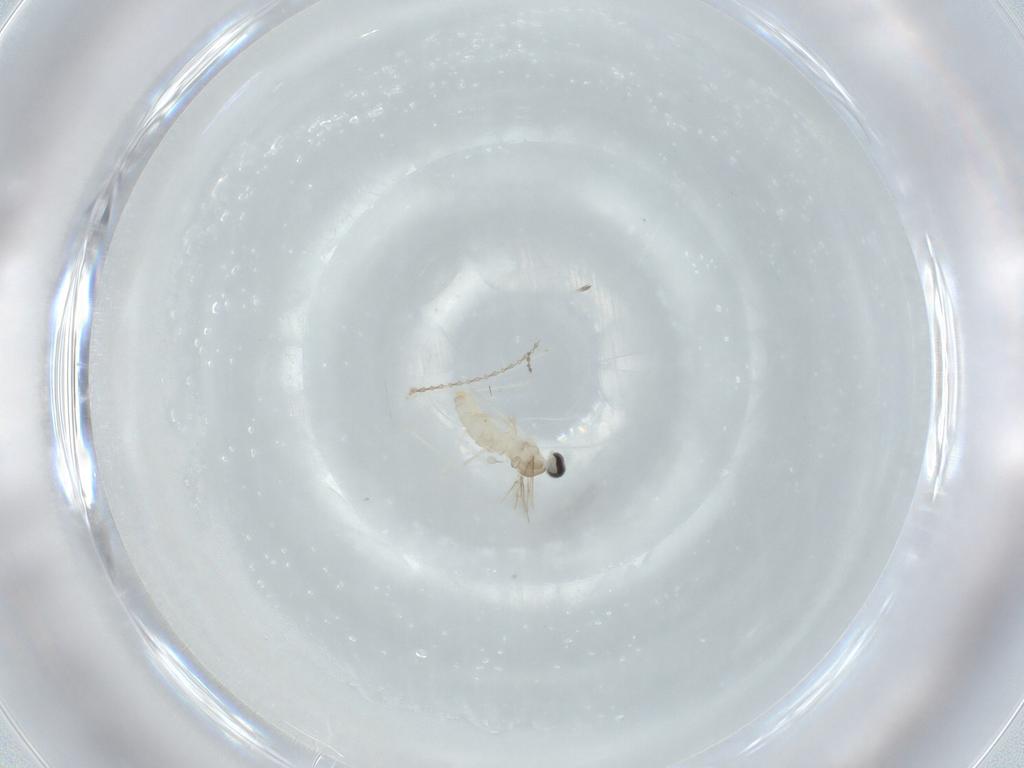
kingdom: Animalia
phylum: Arthropoda
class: Insecta
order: Diptera
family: Cecidomyiidae
